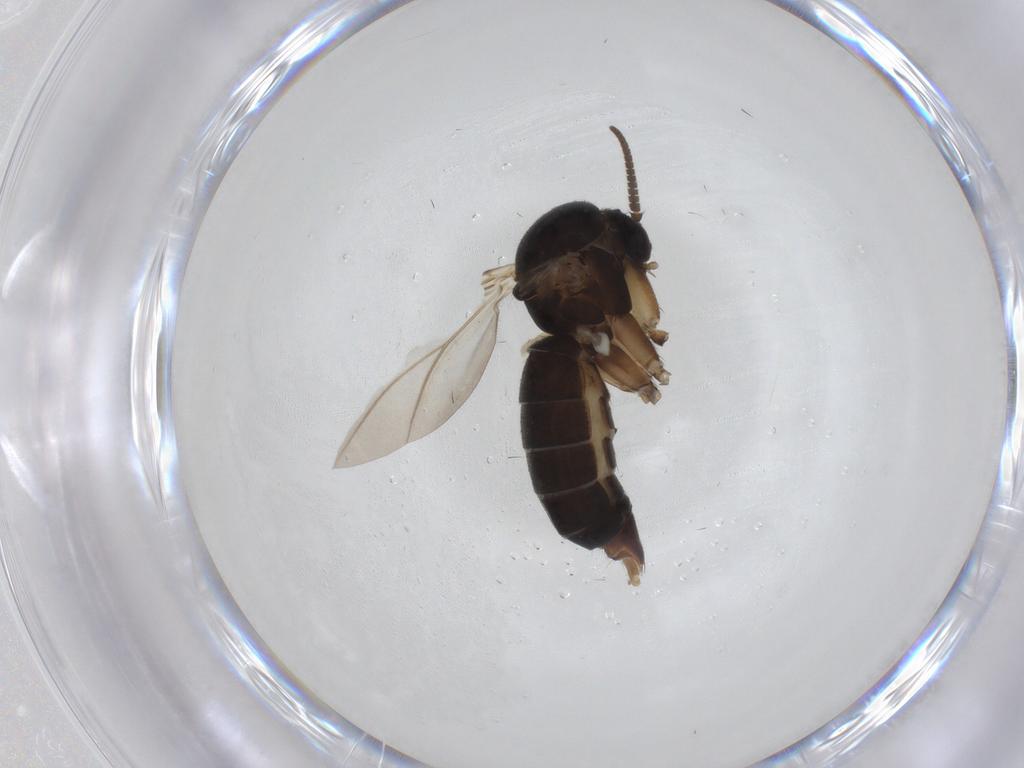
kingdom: Animalia
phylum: Arthropoda
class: Insecta
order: Diptera
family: Mycetophilidae
